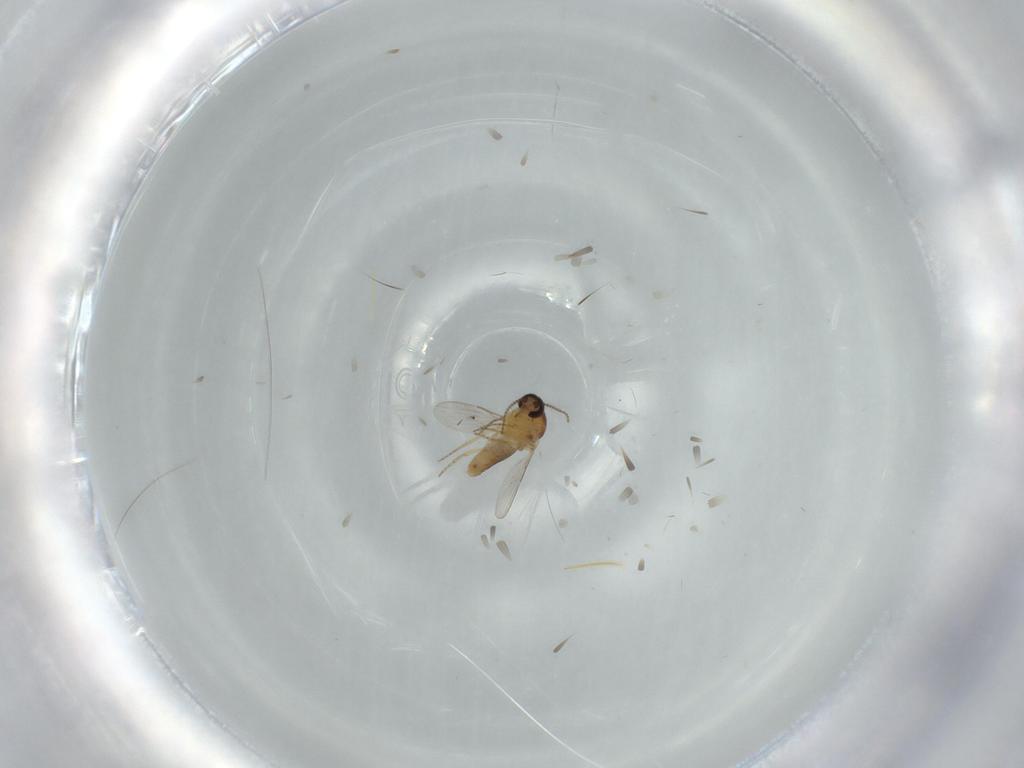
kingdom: Animalia
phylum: Arthropoda
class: Insecta
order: Diptera
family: Ceratopogonidae
